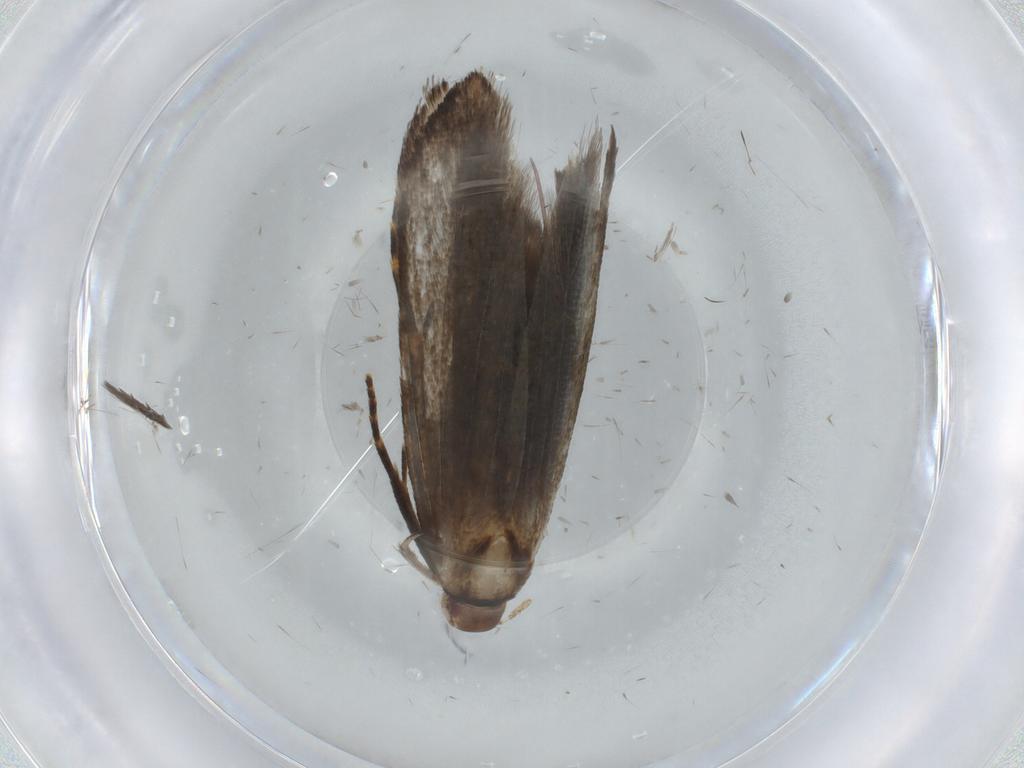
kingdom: Animalia
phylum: Arthropoda
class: Insecta
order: Lepidoptera
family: Gelechiidae
